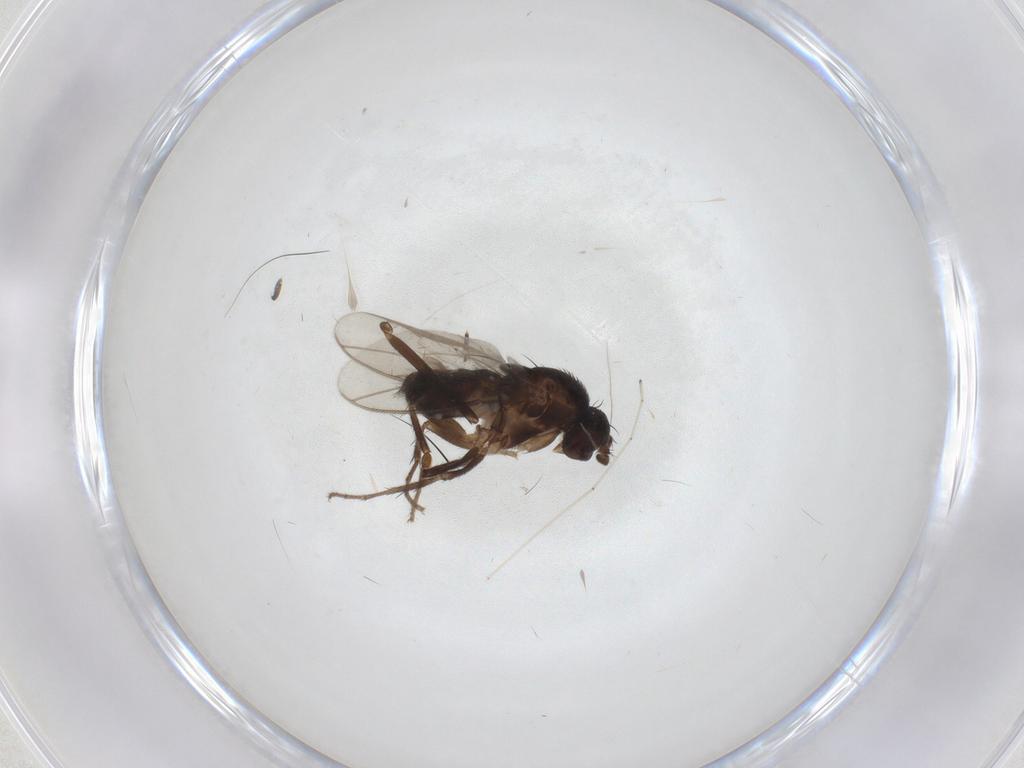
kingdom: Animalia
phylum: Arthropoda
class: Insecta
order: Diptera
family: Sphaeroceridae
